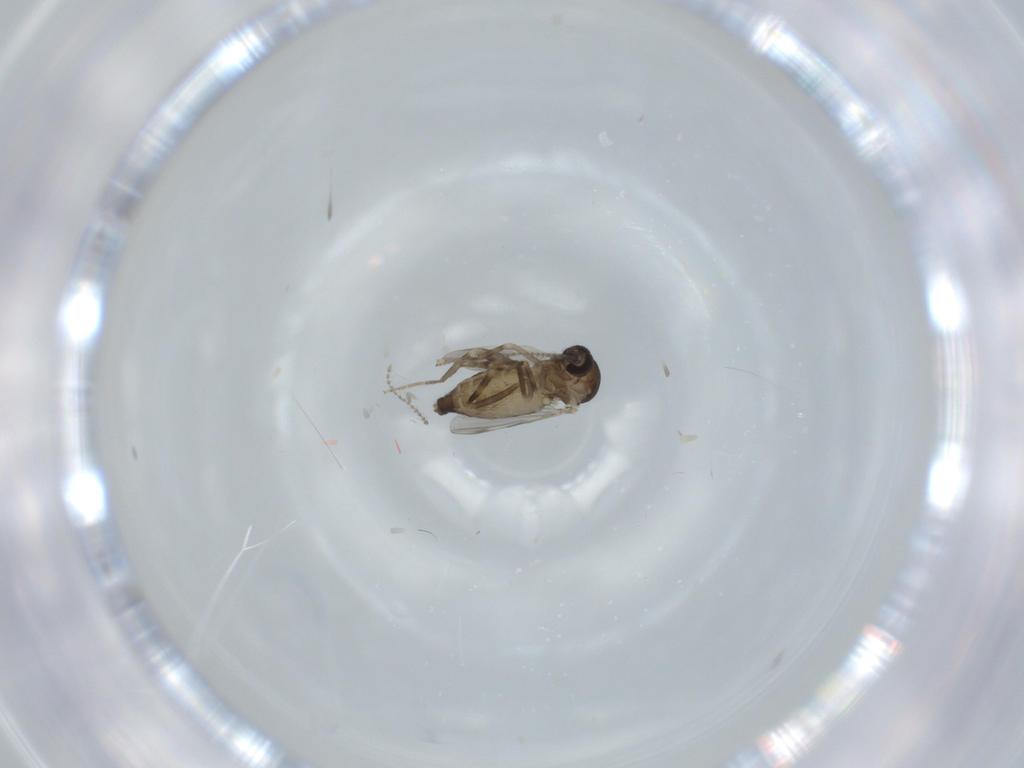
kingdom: Animalia
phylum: Arthropoda
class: Insecta
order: Diptera
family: Ceratopogonidae
